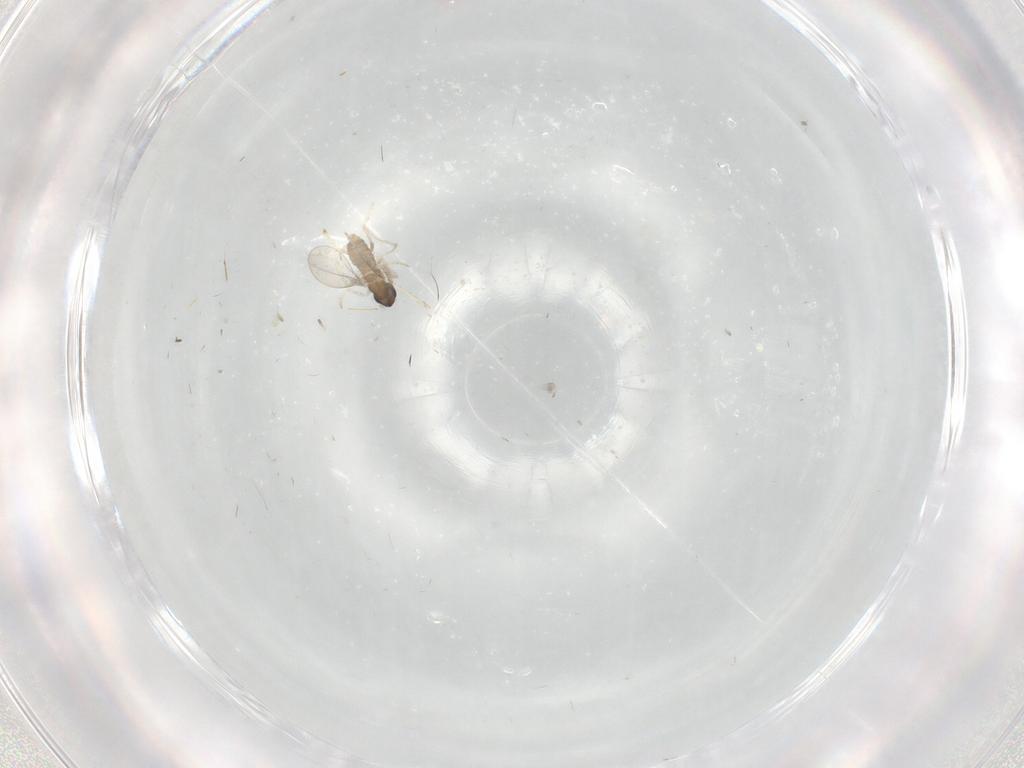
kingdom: Animalia
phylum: Arthropoda
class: Insecta
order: Diptera
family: Cecidomyiidae
